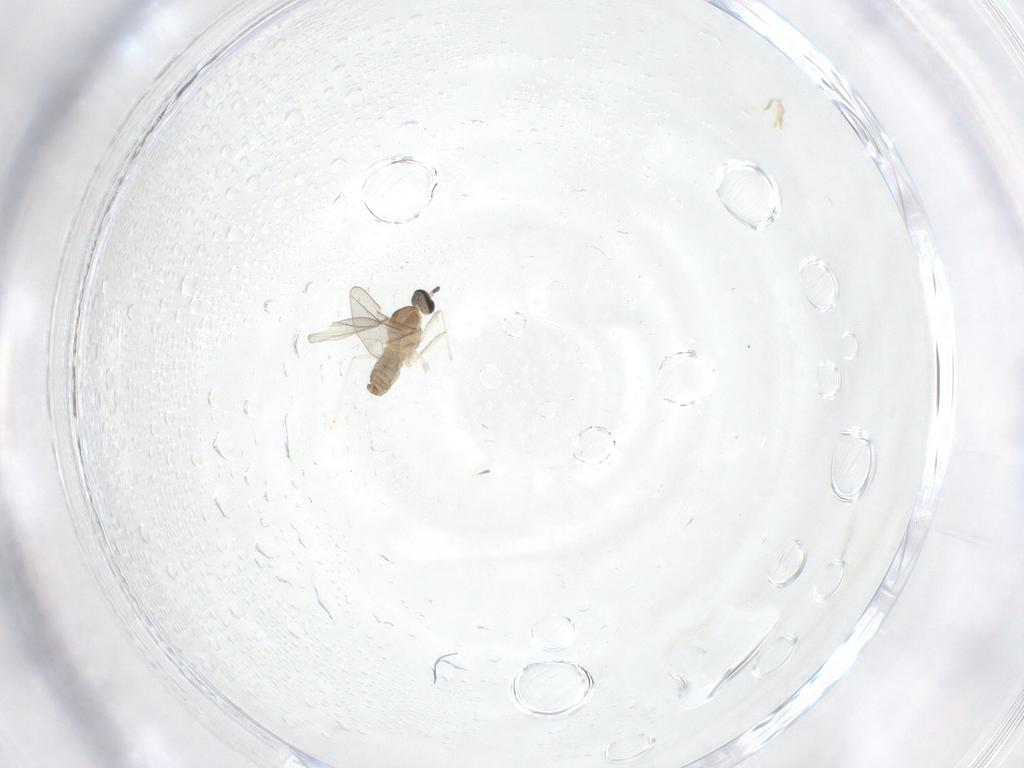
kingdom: Animalia
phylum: Arthropoda
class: Insecta
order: Diptera
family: Cecidomyiidae
